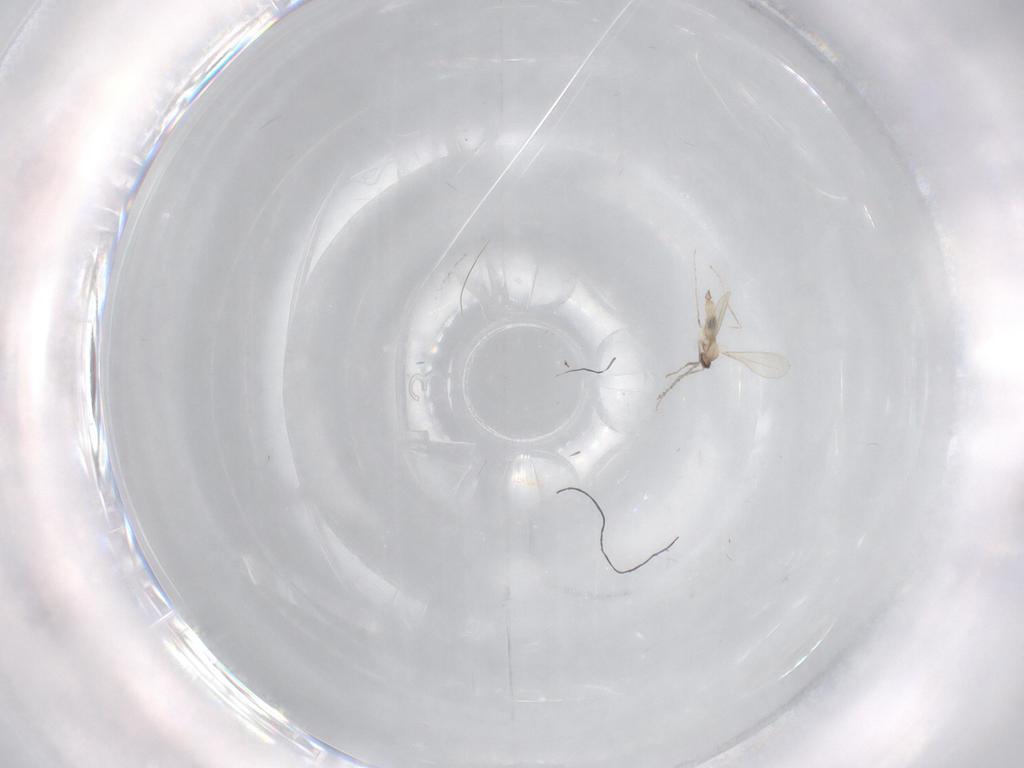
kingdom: Animalia
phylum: Arthropoda
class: Insecta
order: Diptera
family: Cecidomyiidae
